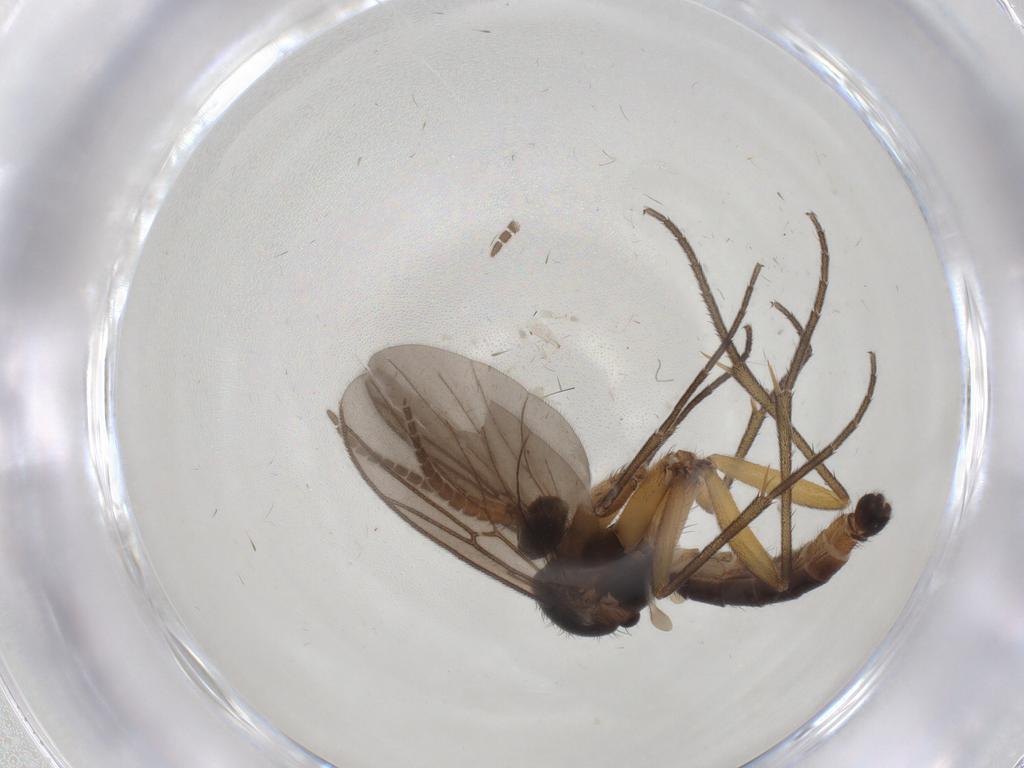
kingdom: Animalia
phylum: Arthropoda
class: Insecta
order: Diptera
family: Mycetophilidae
